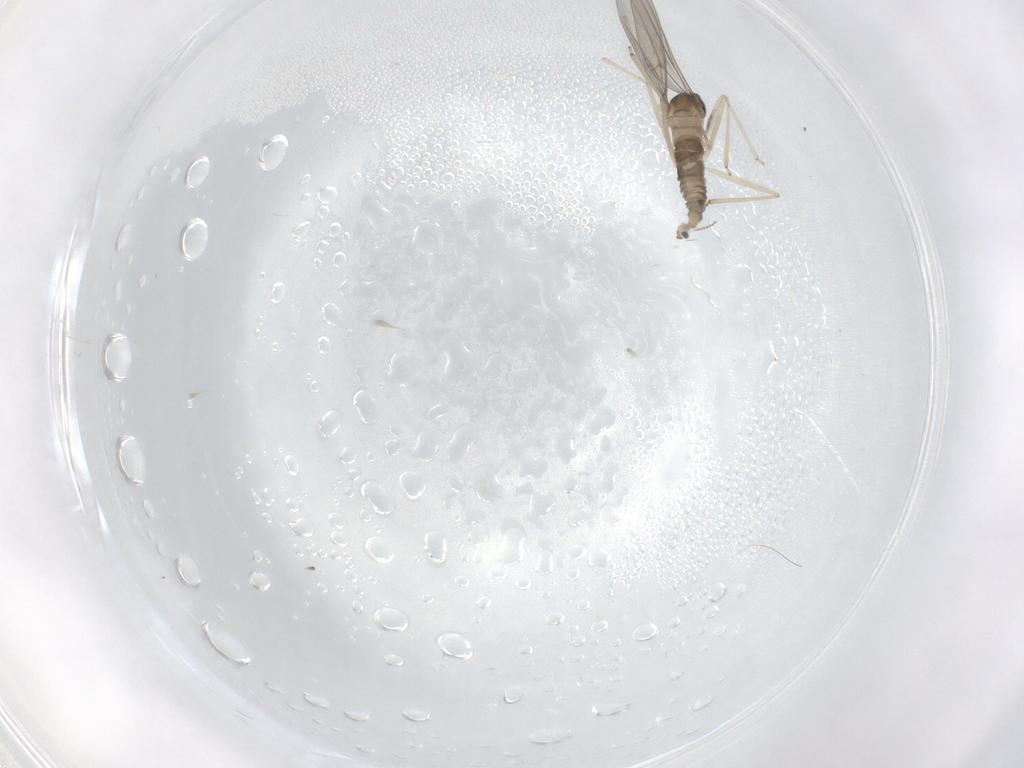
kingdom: Animalia
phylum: Arthropoda
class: Insecta
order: Diptera
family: Cecidomyiidae
